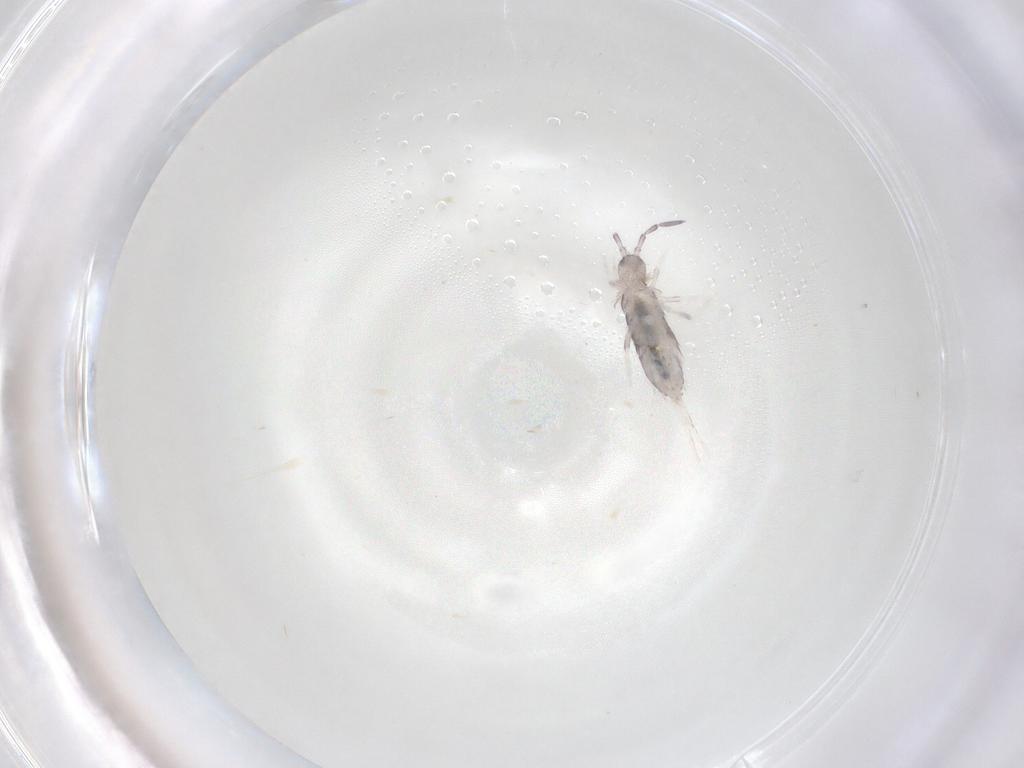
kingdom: Animalia
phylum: Arthropoda
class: Collembola
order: Poduromorpha
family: Hypogastruridae
